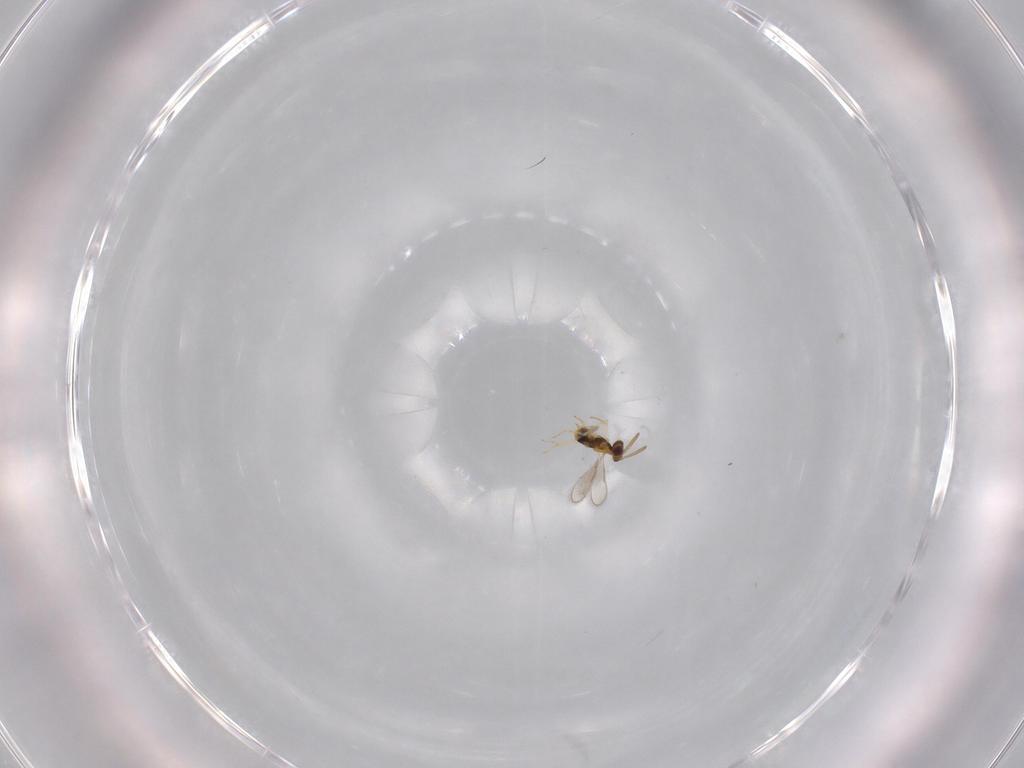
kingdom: Animalia
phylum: Arthropoda
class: Insecta
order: Hymenoptera
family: Aphelinidae
